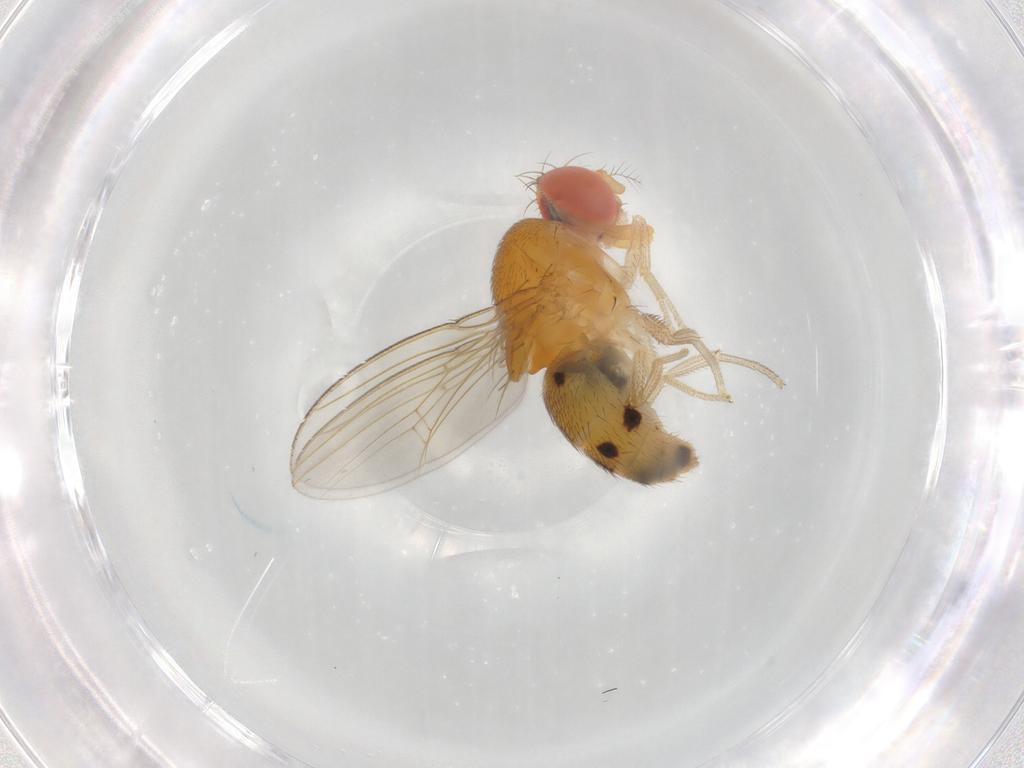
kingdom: Animalia
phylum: Arthropoda
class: Insecta
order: Diptera
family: Drosophilidae
